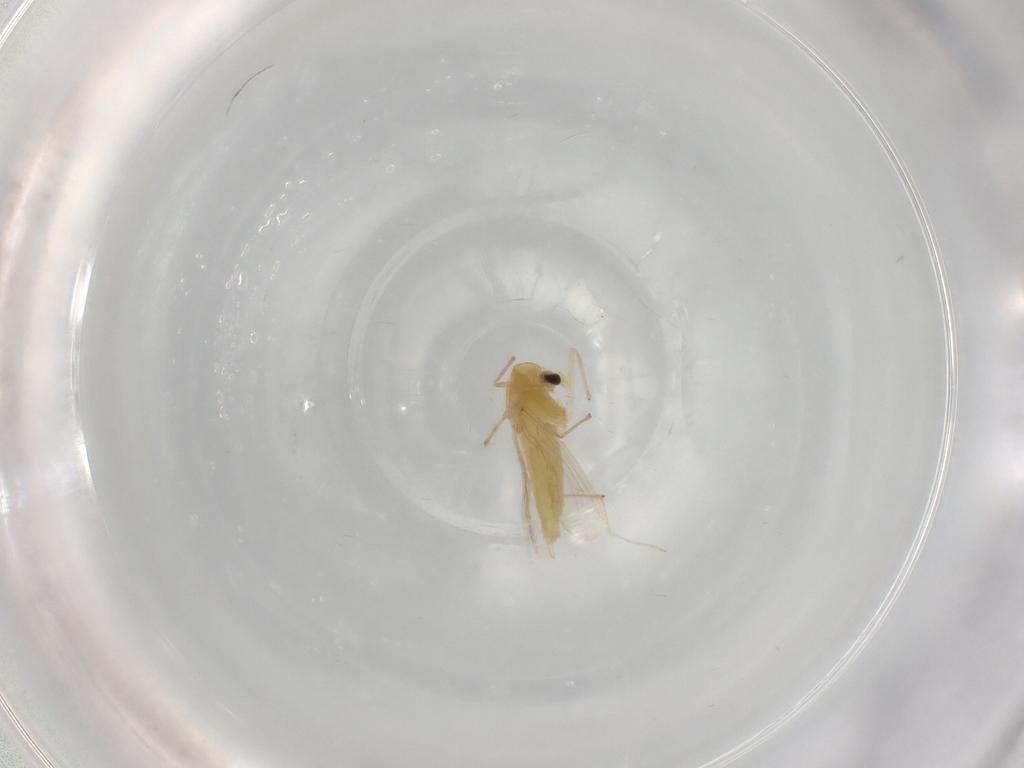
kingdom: Animalia
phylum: Arthropoda
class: Insecta
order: Diptera
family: Chironomidae
